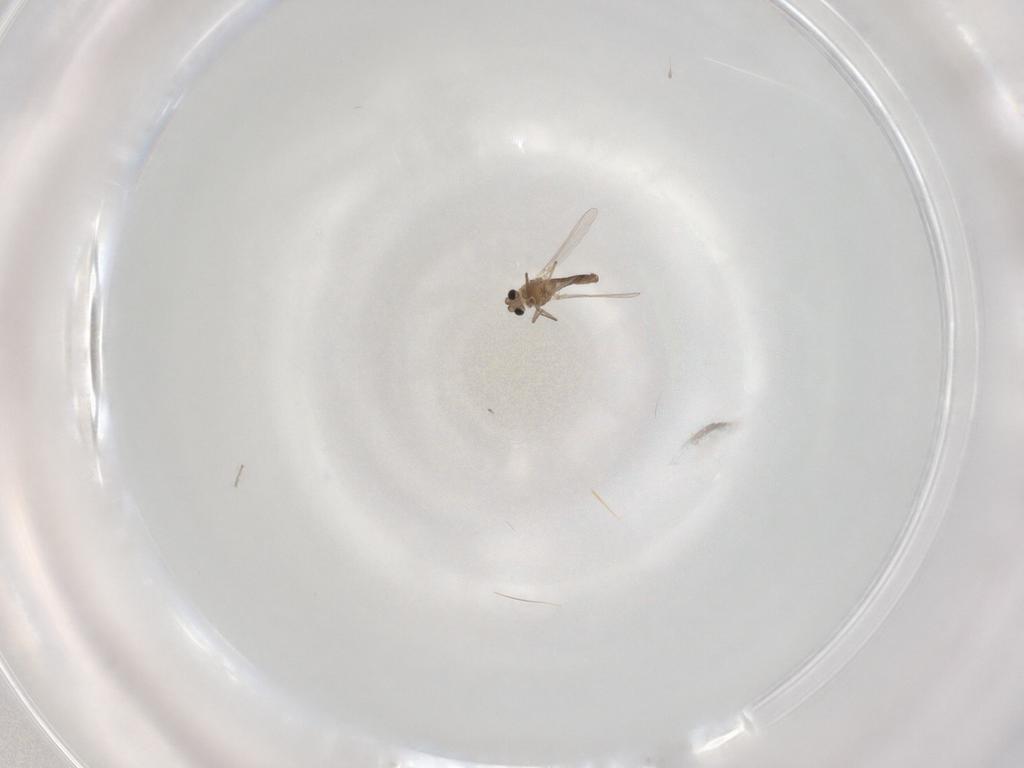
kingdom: Animalia
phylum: Arthropoda
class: Insecta
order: Diptera
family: Chironomidae
